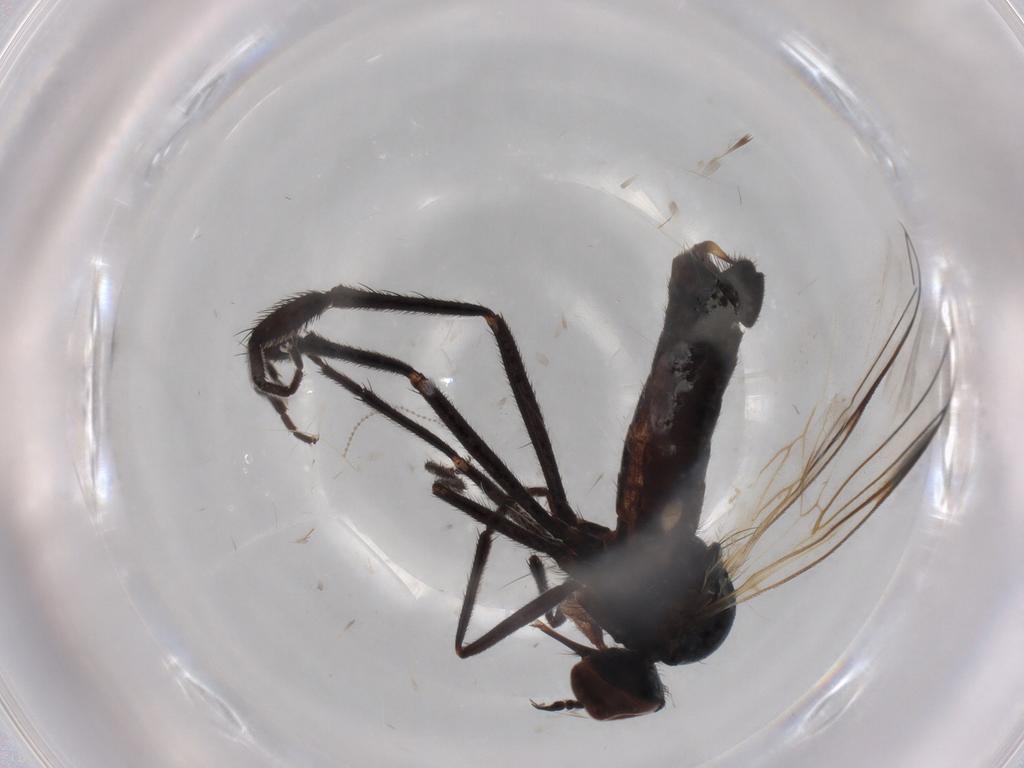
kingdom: Animalia
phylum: Arthropoda
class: Insecta
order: Diptera
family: Empididae
